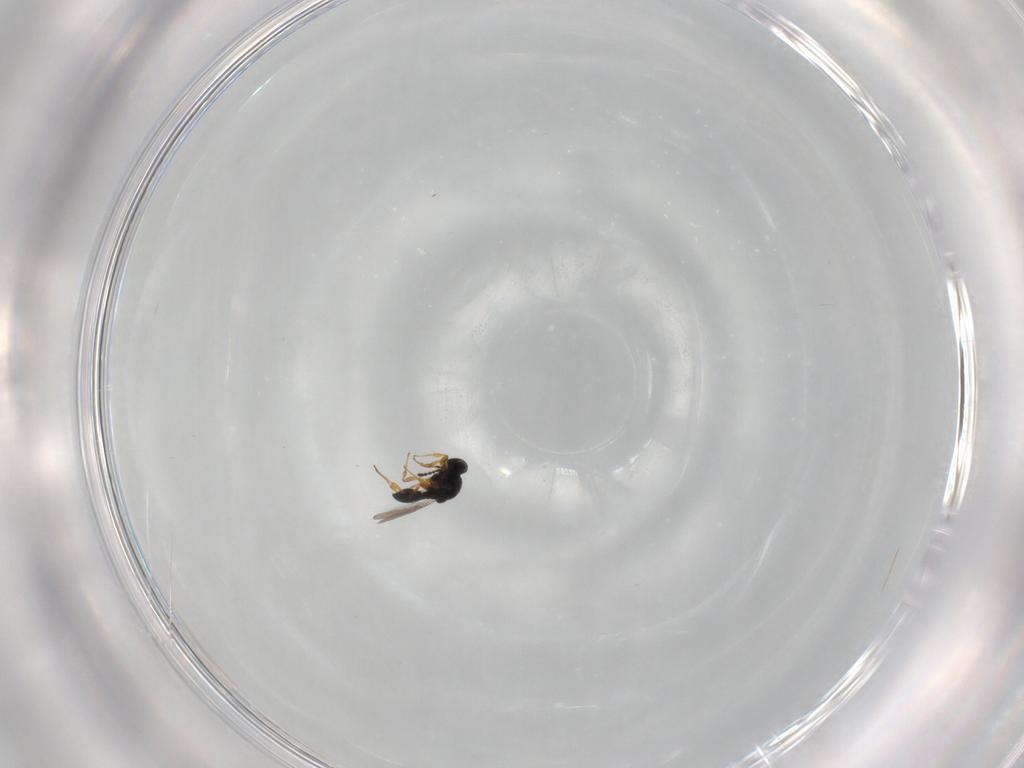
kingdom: Animalia
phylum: Arthropoda
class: Insecta
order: Hymenoptera
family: Platygastridae
